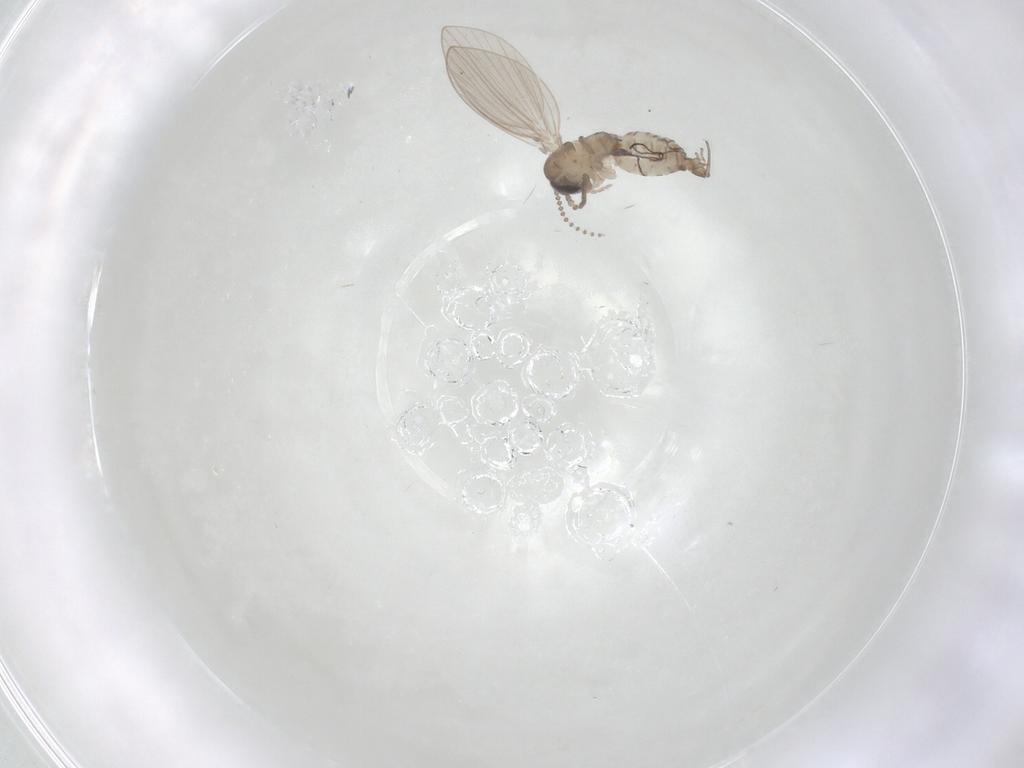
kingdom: Animalia
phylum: Arthropoda
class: Insecta
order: Diptera
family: Psychodidae
